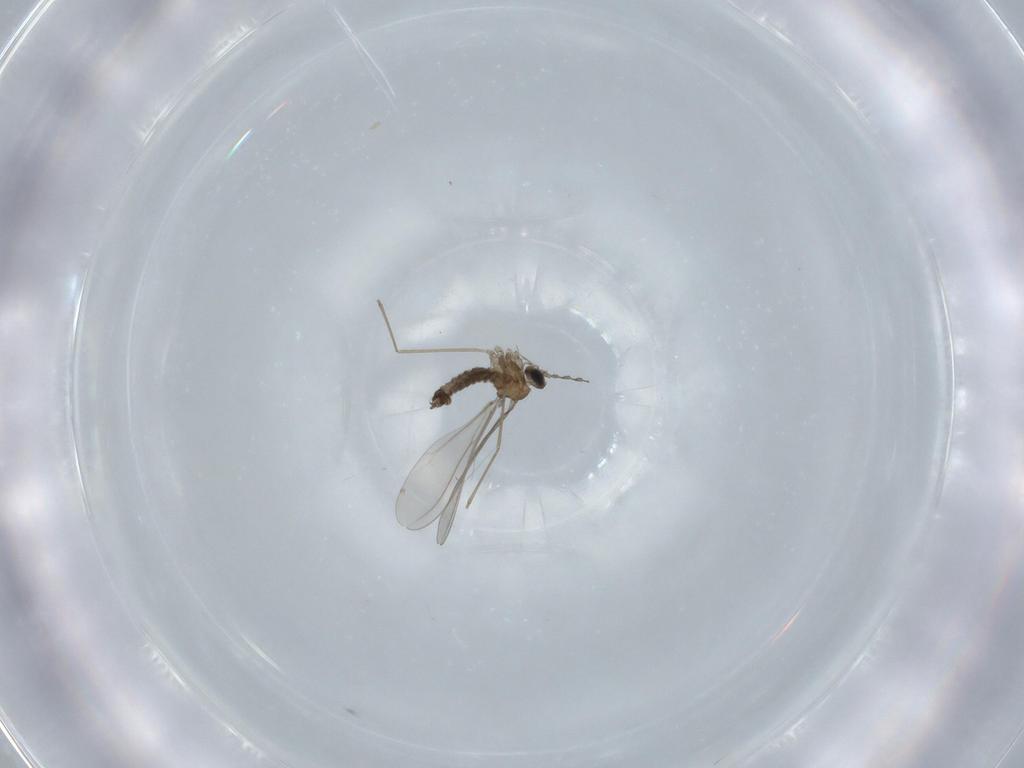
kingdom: Animalia
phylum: Arthropoda
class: Insecta
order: Diptera
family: Cecidomyiidae
